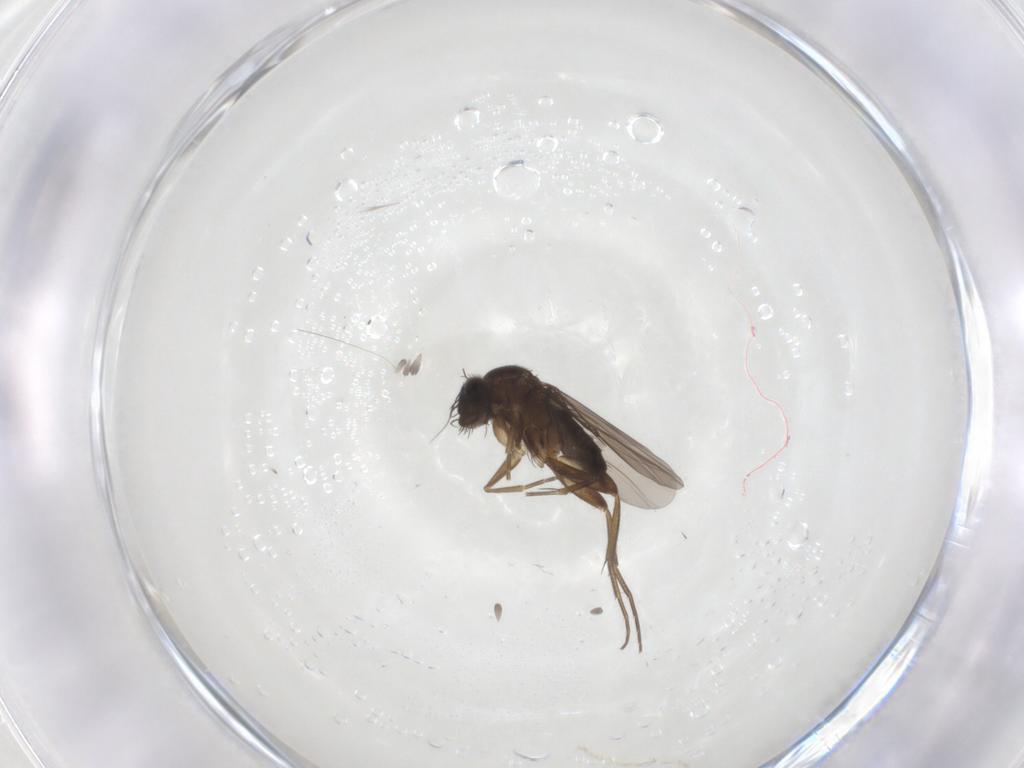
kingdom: Animalia
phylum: Arthropoda
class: Insecta
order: Diptera
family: Phoridae
